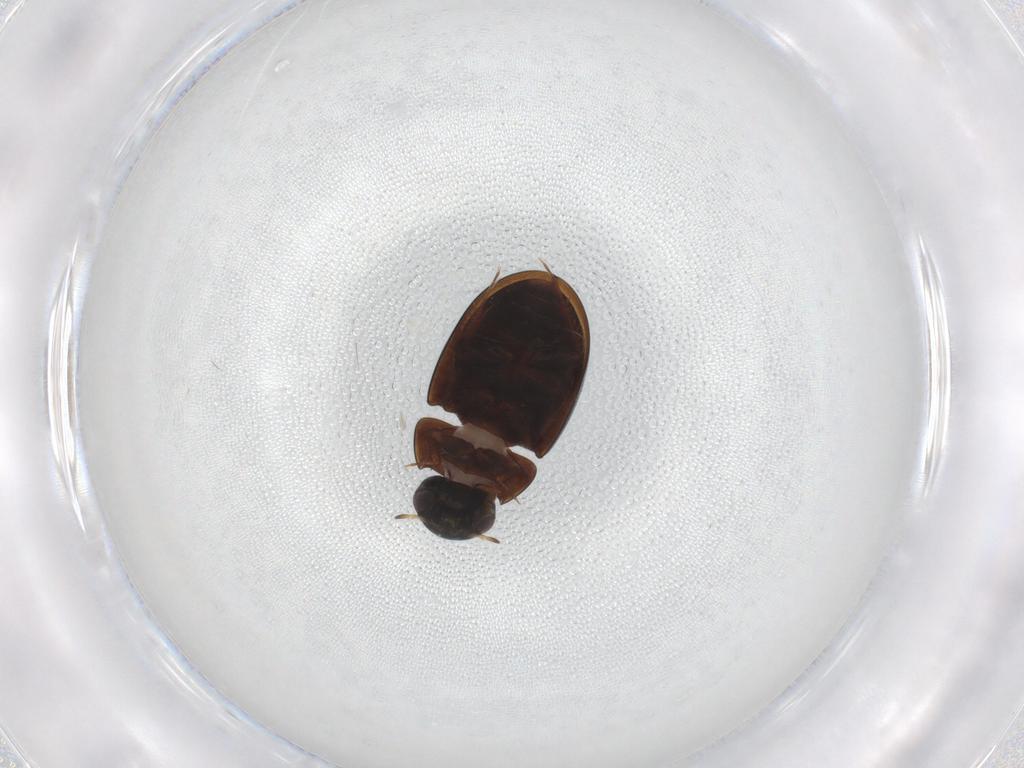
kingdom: Animalia
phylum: Arthropoda
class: Insecta
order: Coleoptera
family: Hydrophilidae
